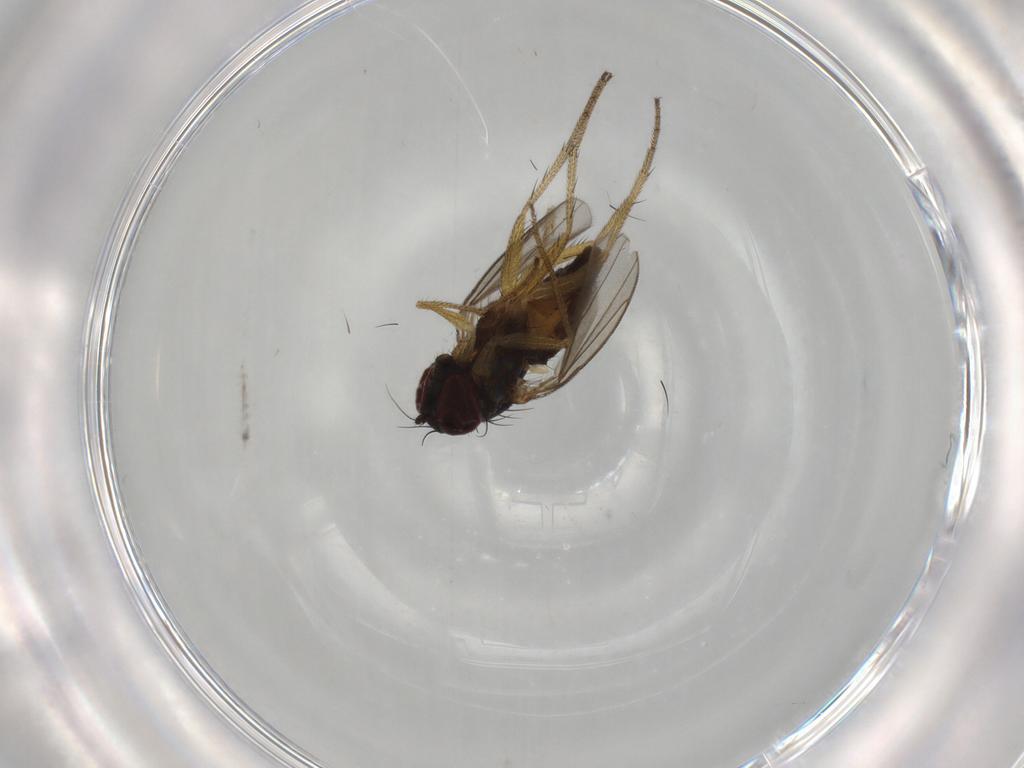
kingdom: Animalia
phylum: Arthropoda
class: Insecta
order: Diptera
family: Dolichopodidae
